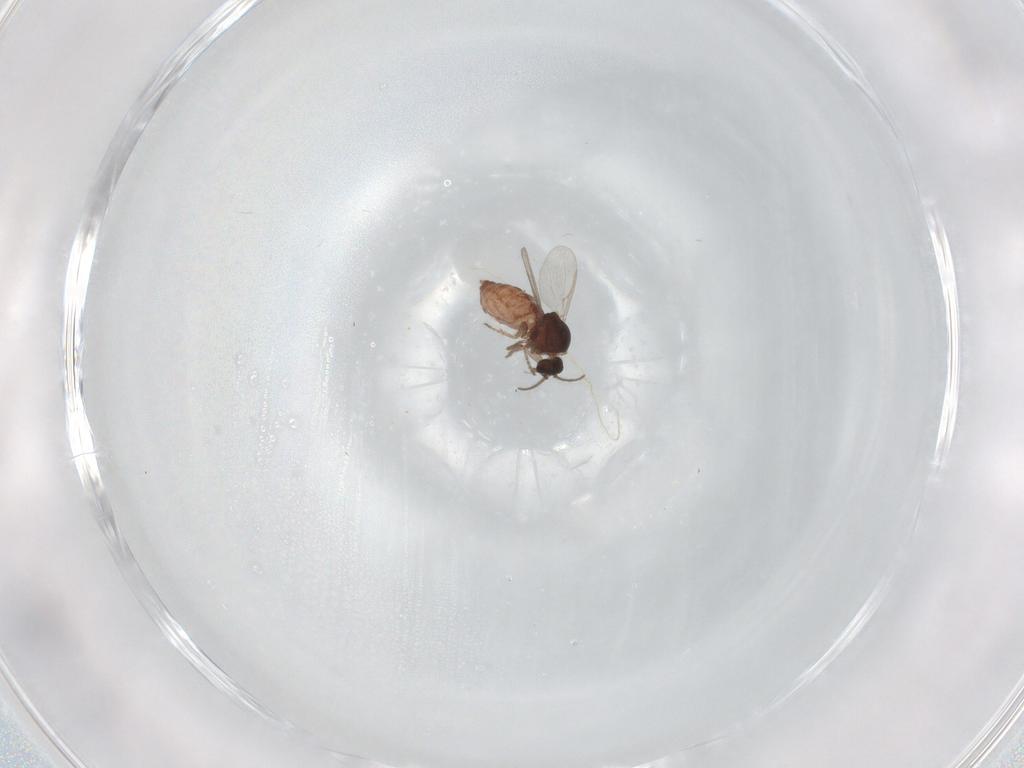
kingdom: Animalia
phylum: Arthropoda
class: Insecta
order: Diptera
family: Ceratopogonidae
